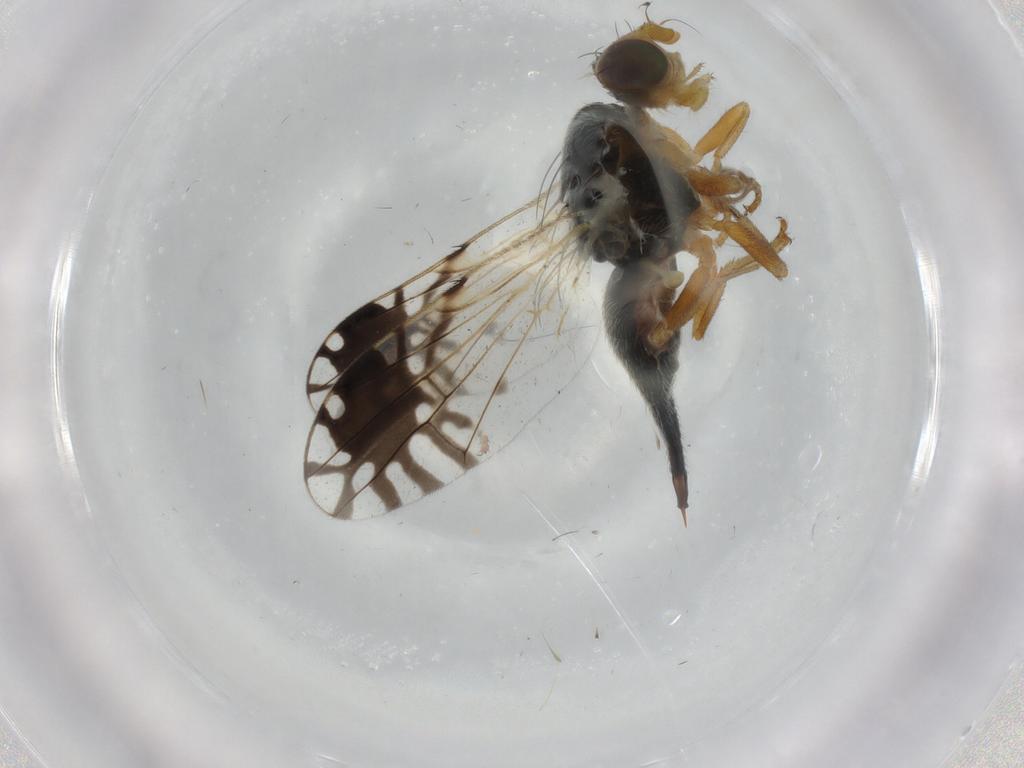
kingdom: Animalia
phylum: Arthropoda
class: Insecta
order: Diptera
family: Tephritidae
